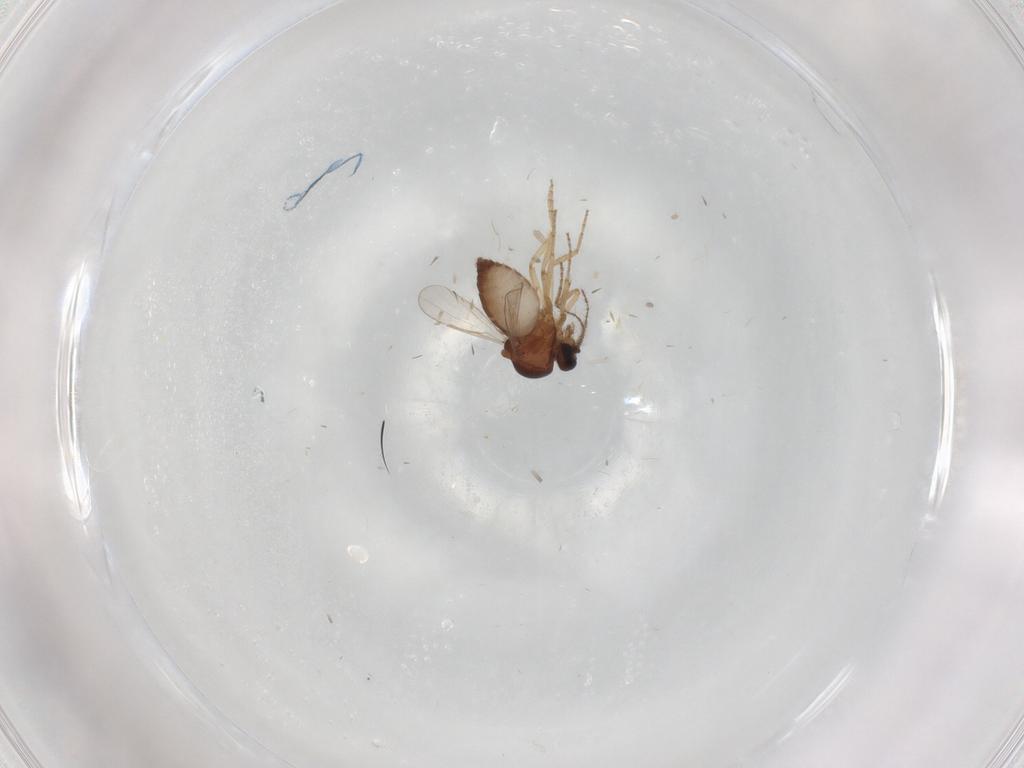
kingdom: Animalia
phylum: Arthropoda
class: Insecta
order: Diptera
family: Ceratopogonidae
